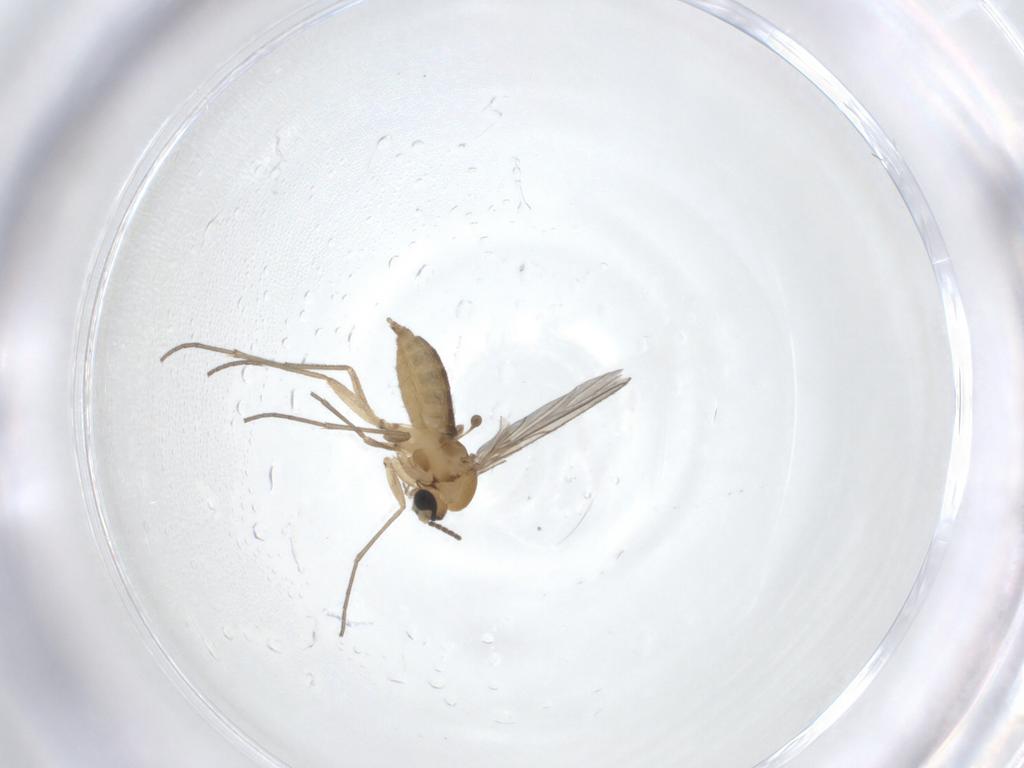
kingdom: Animalia
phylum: Arthropoda
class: Insecta
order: Diptera
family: Sciaridae
